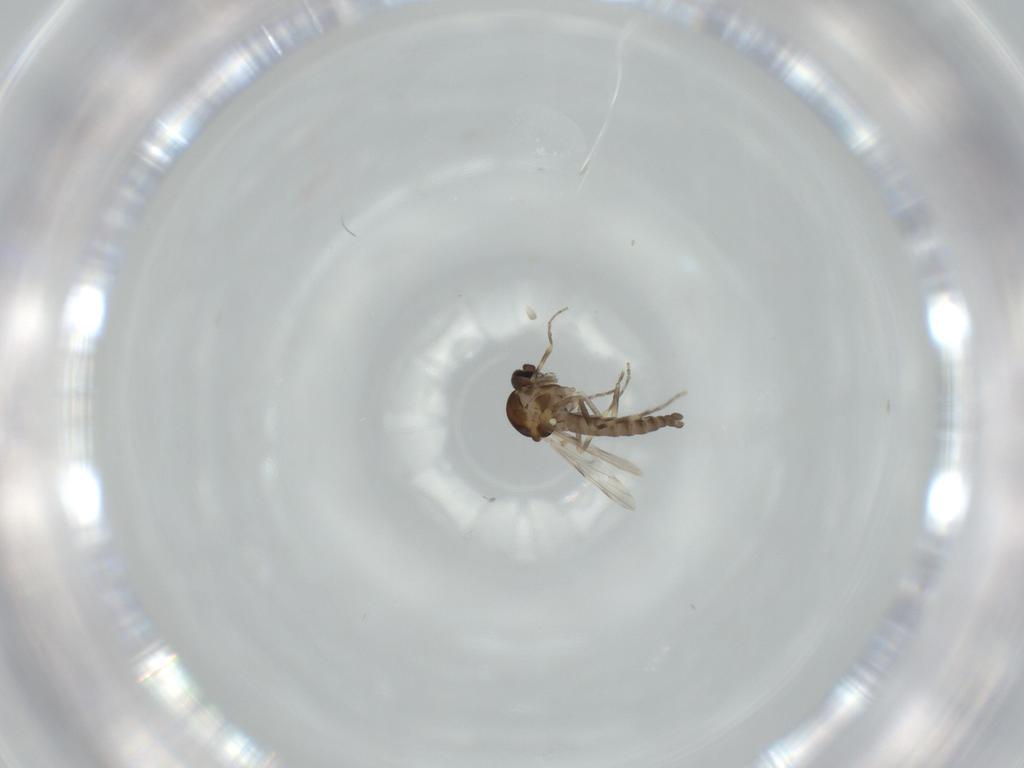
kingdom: Animalia
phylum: Arthropoda
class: Insecta
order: Diptera
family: Ceratopogonidae
